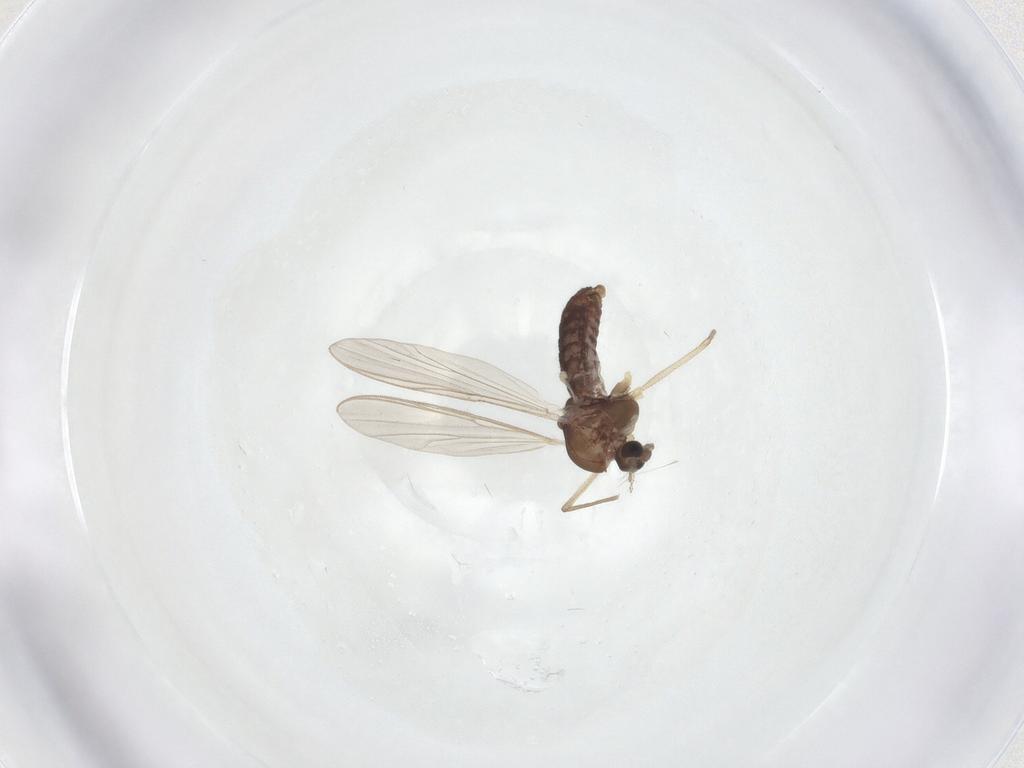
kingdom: Animalia
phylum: Arthropoda
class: Insecta
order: Diptera
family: Chironomidae
